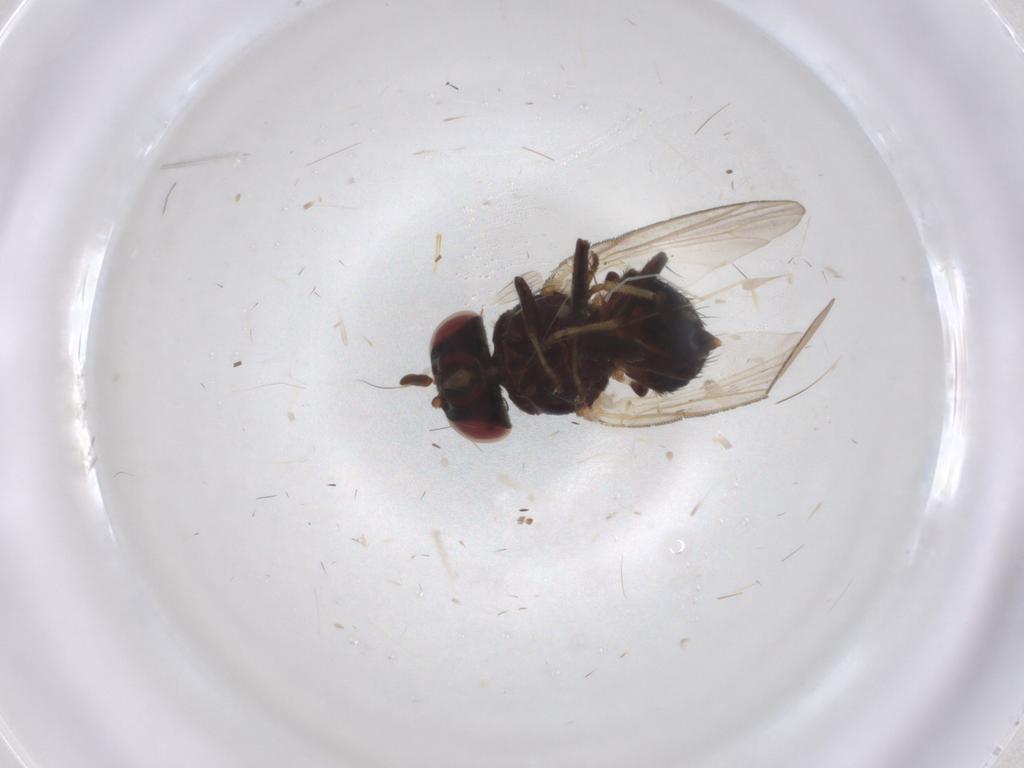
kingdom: Animalia
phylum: Arthropoda
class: Insecta
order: Diptera
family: Lonchaeidae
